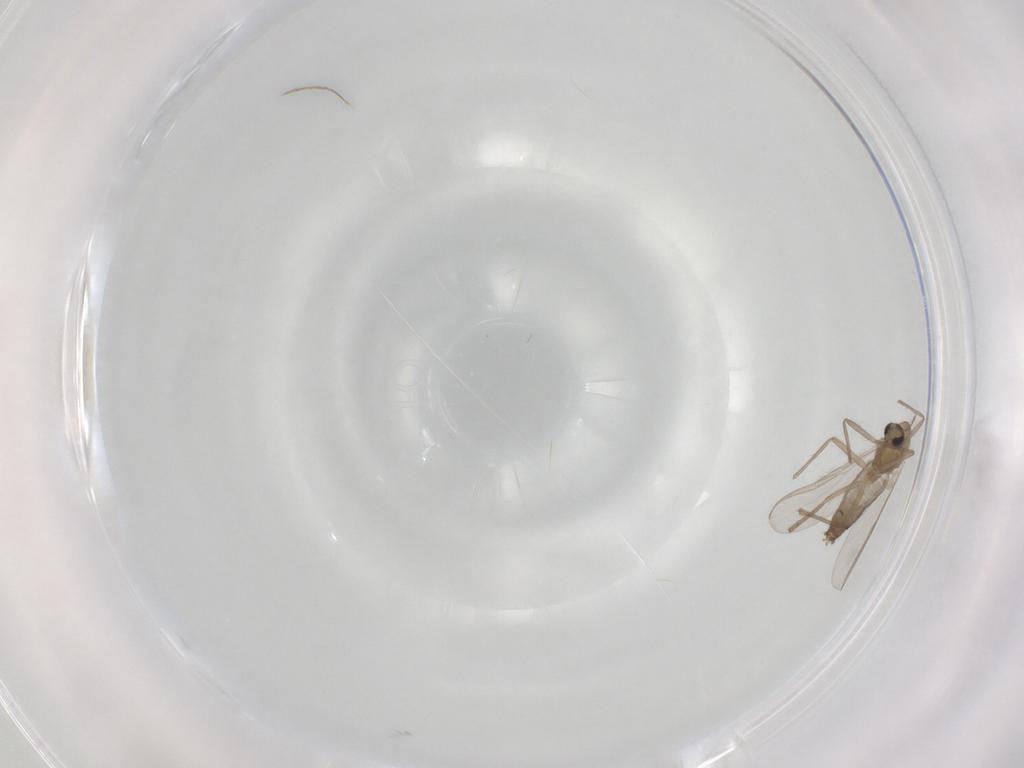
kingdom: Animalia
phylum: Arthropoda
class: Insecta
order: Diptera
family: Chironomidae
